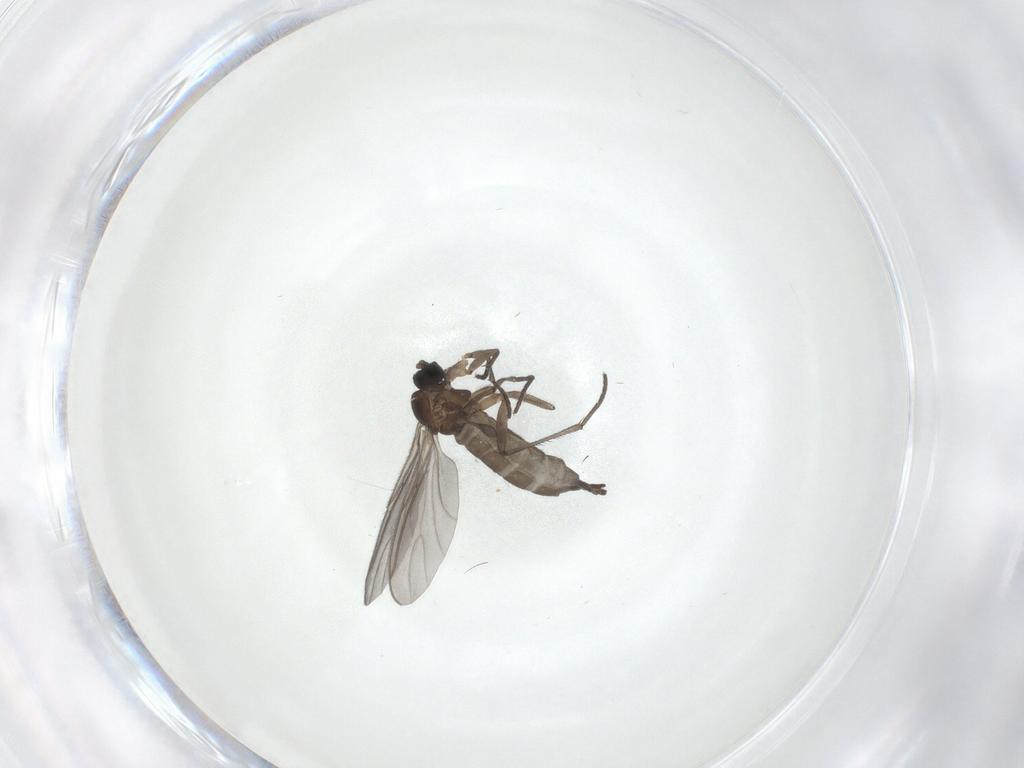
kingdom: Animalia
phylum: Arthropoda
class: Insecta
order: Diptera
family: Sciaridae
